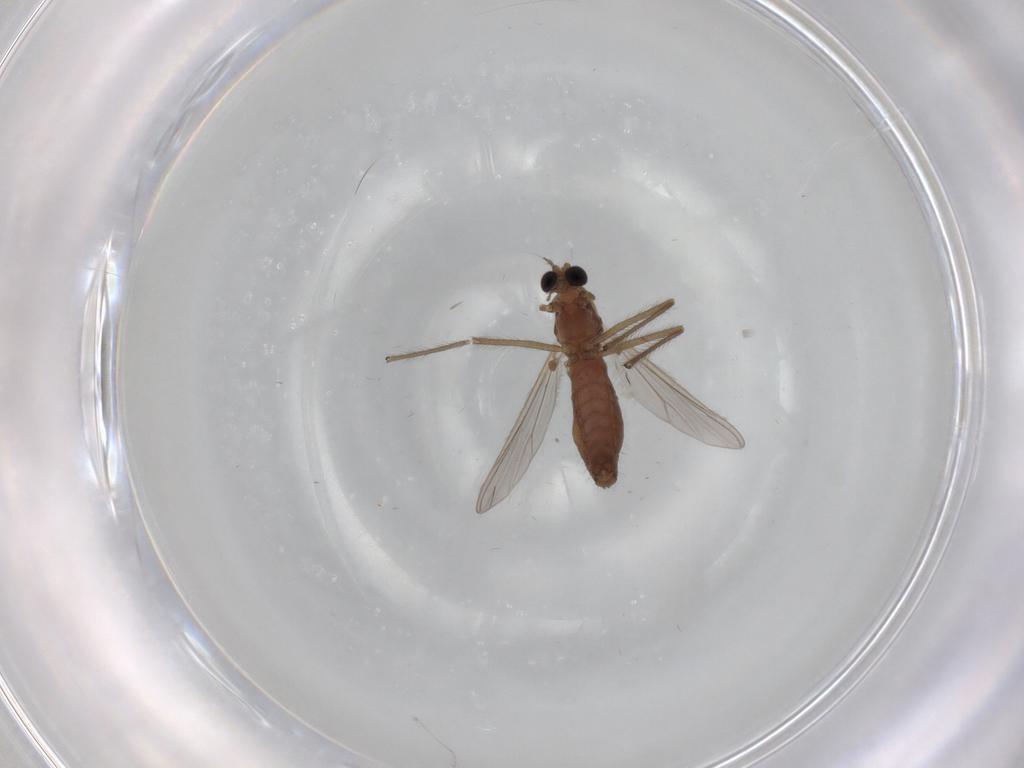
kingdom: Animalia
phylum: Arthropoda
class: Insecta
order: Diptera
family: Chironomidae
